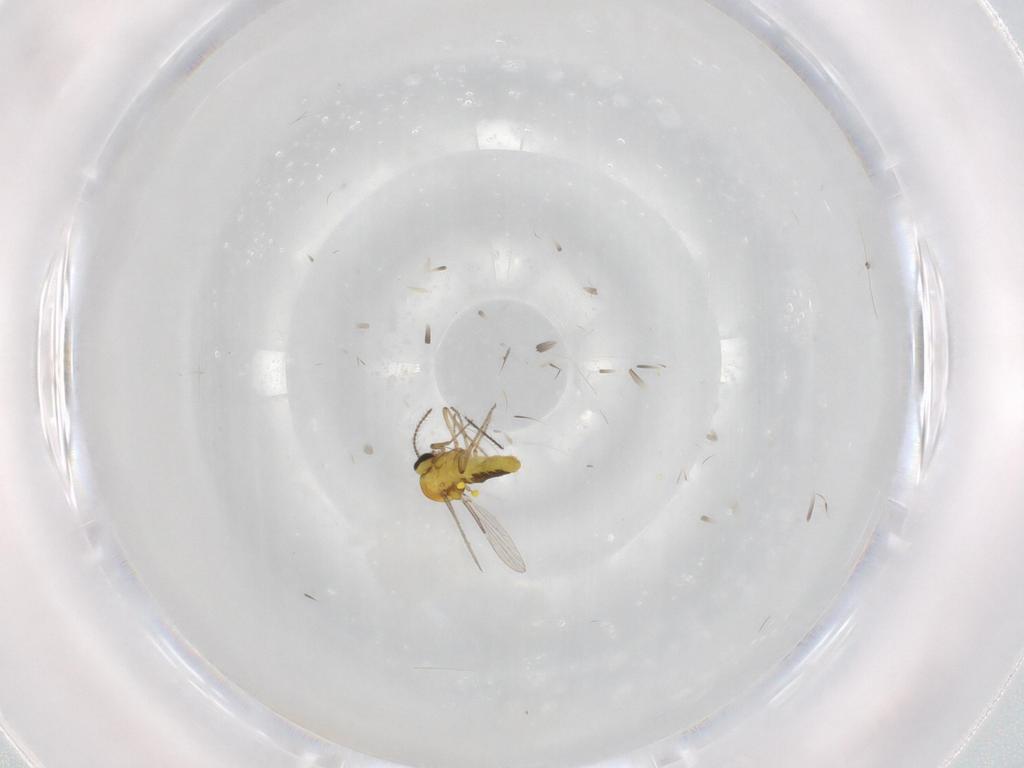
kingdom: Animalia
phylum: Arthropoda
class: Insecta
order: Diptera
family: Ceratopogonidae
